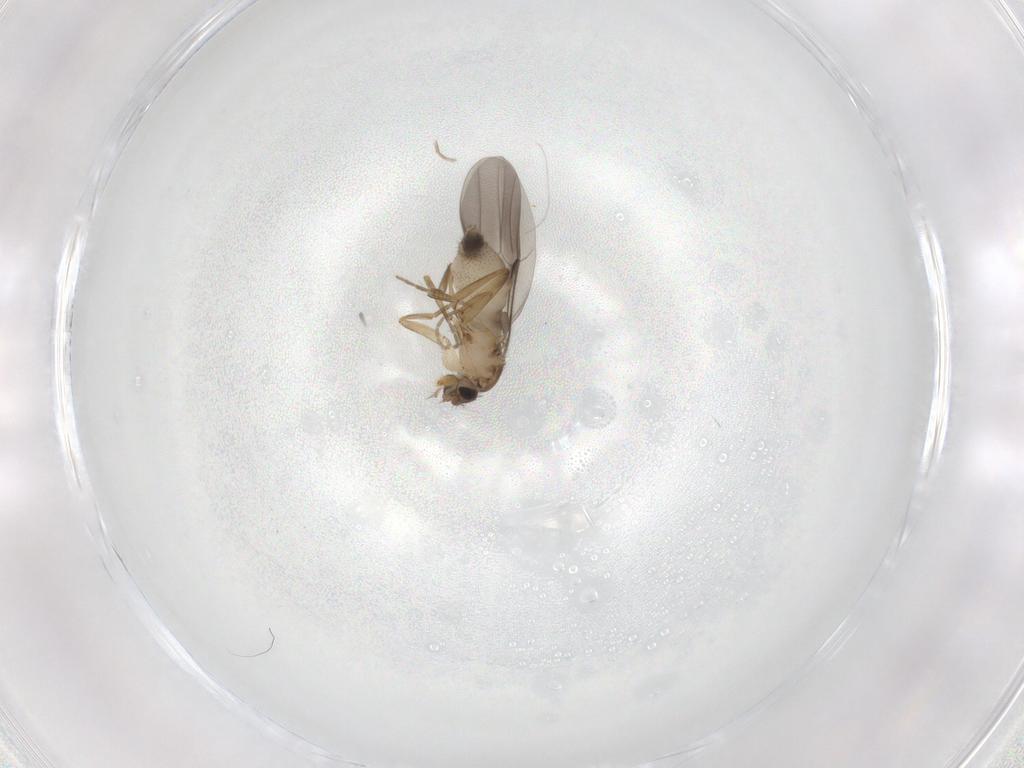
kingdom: Animalia
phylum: Arthropoda
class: Insecta
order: Diptera
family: Phoridae
